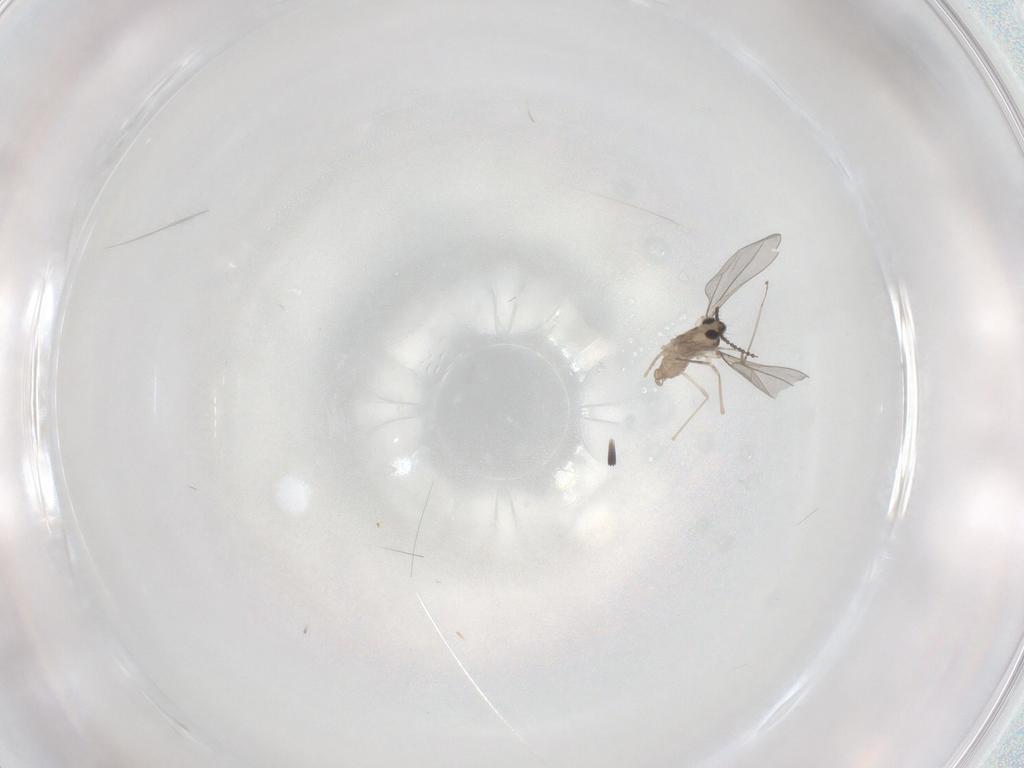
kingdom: Animalia
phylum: Arthropoda
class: Insecta
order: Diptera
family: Cecidomyiidae
